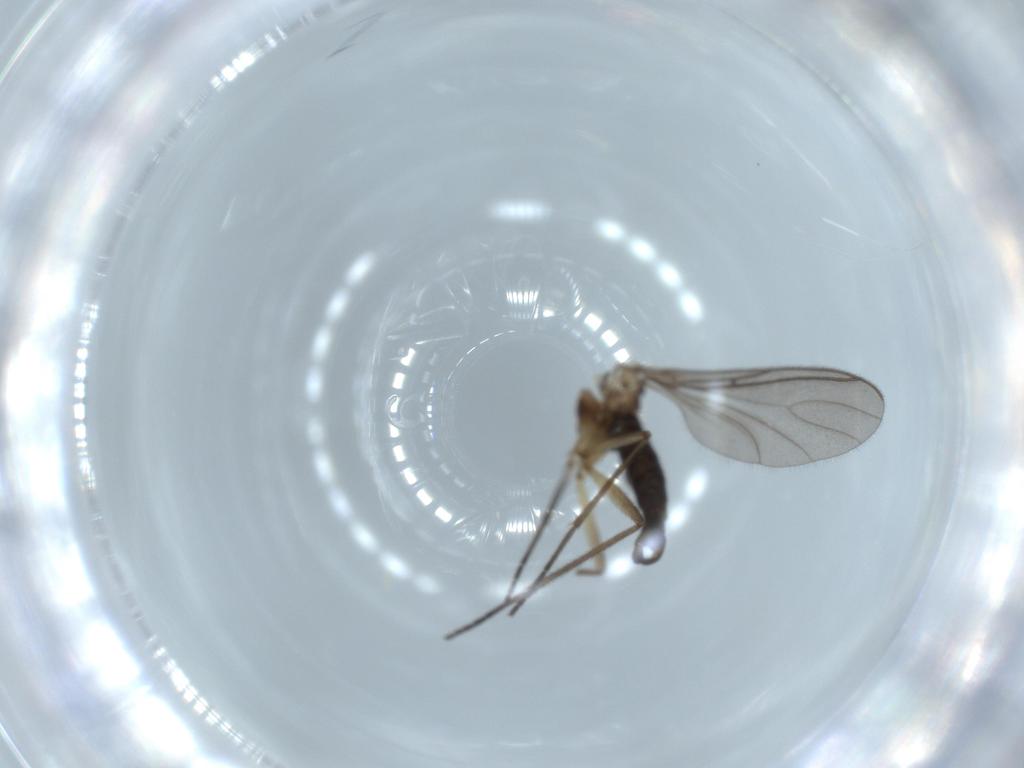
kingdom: Animalia
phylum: Arthropoda
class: Insecta
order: Diptera
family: Sciaridae
